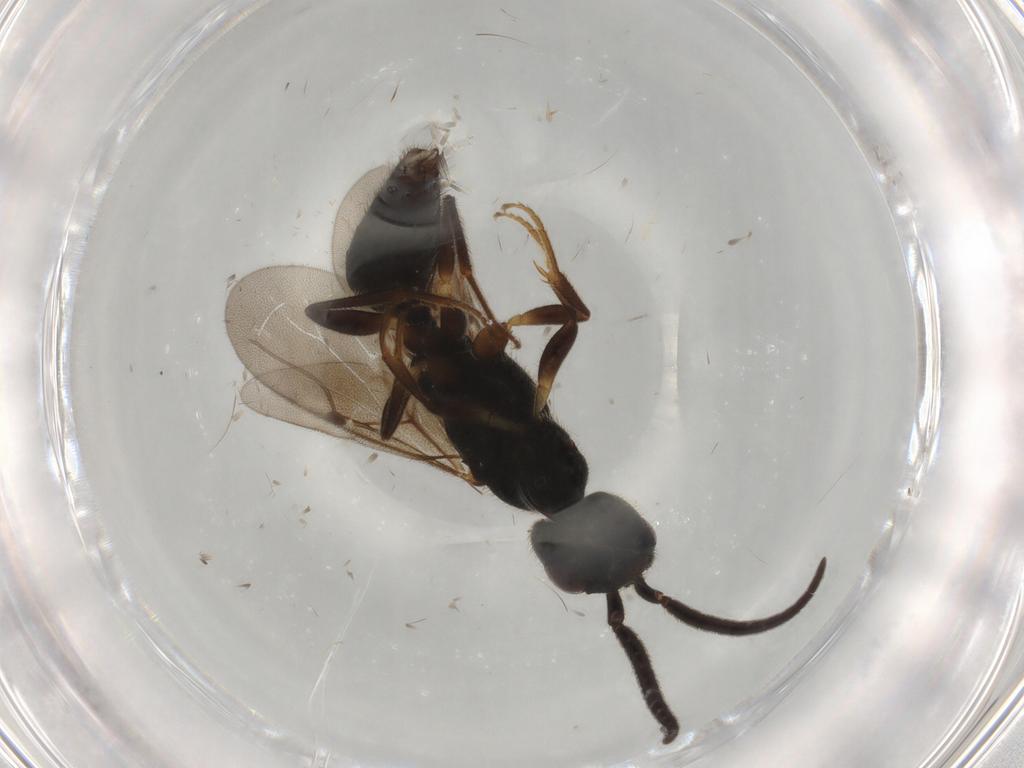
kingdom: Animalia
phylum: Arthropoda
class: Insecta
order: Hymenoptera
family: Bethylidae
